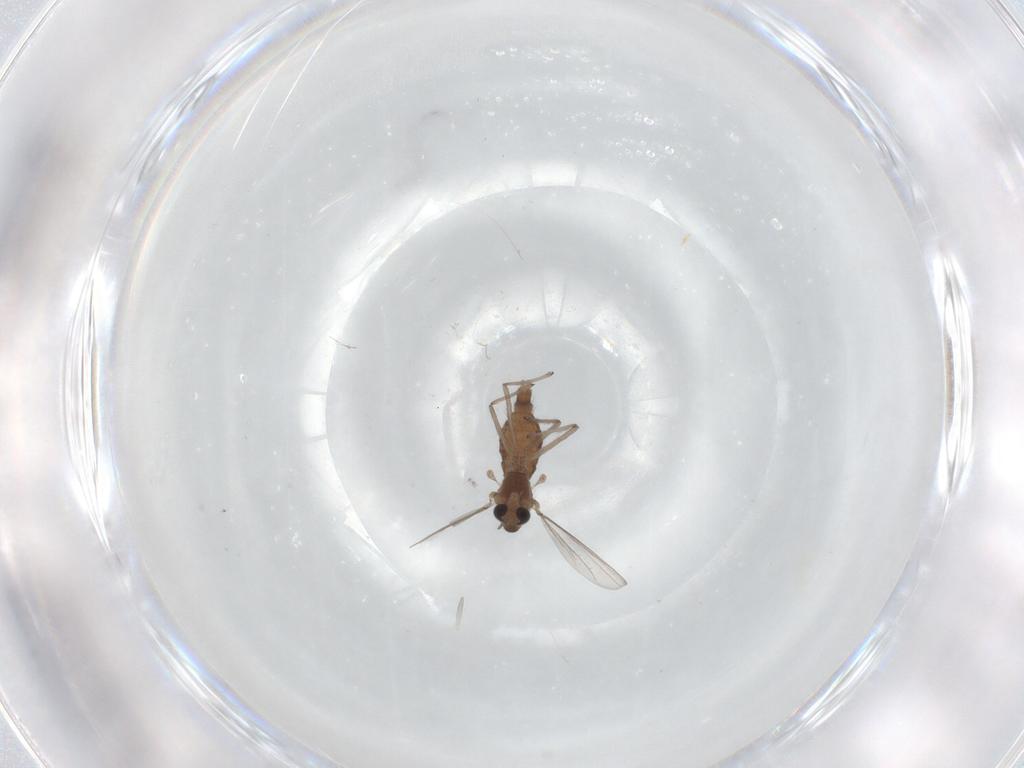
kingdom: Animalia
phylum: Arthropoda
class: Insecta
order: Diptera
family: Chironomidae
